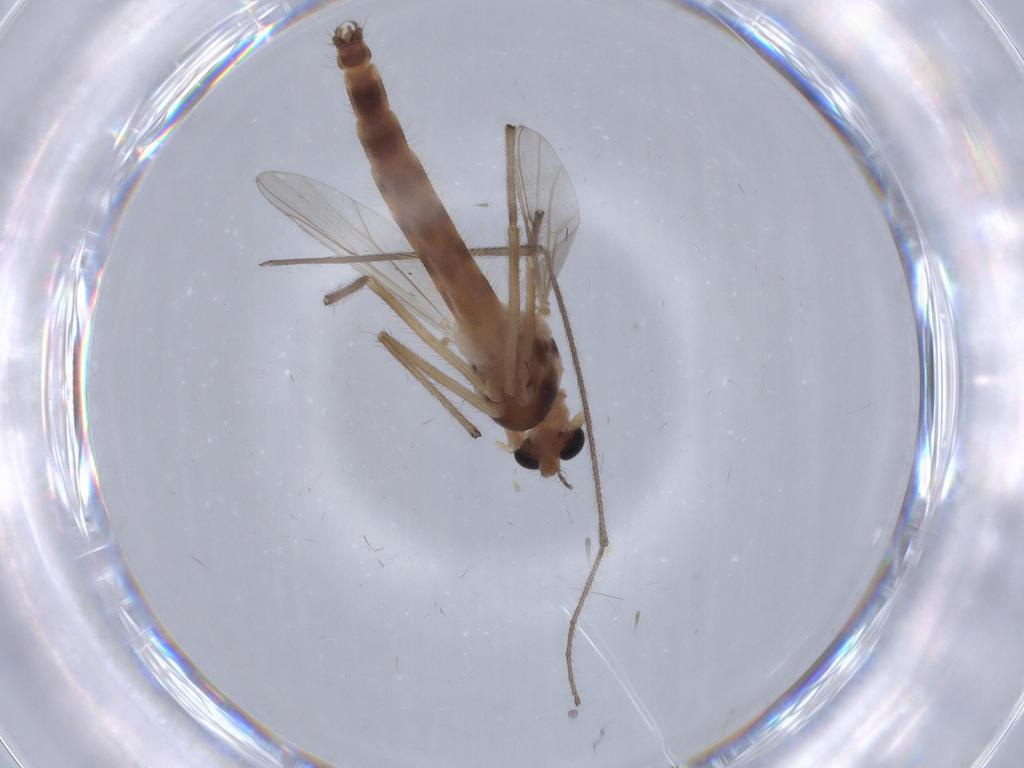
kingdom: Animalia
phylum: Arthropoda
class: Insecta
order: Diptera
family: Chironomidae
